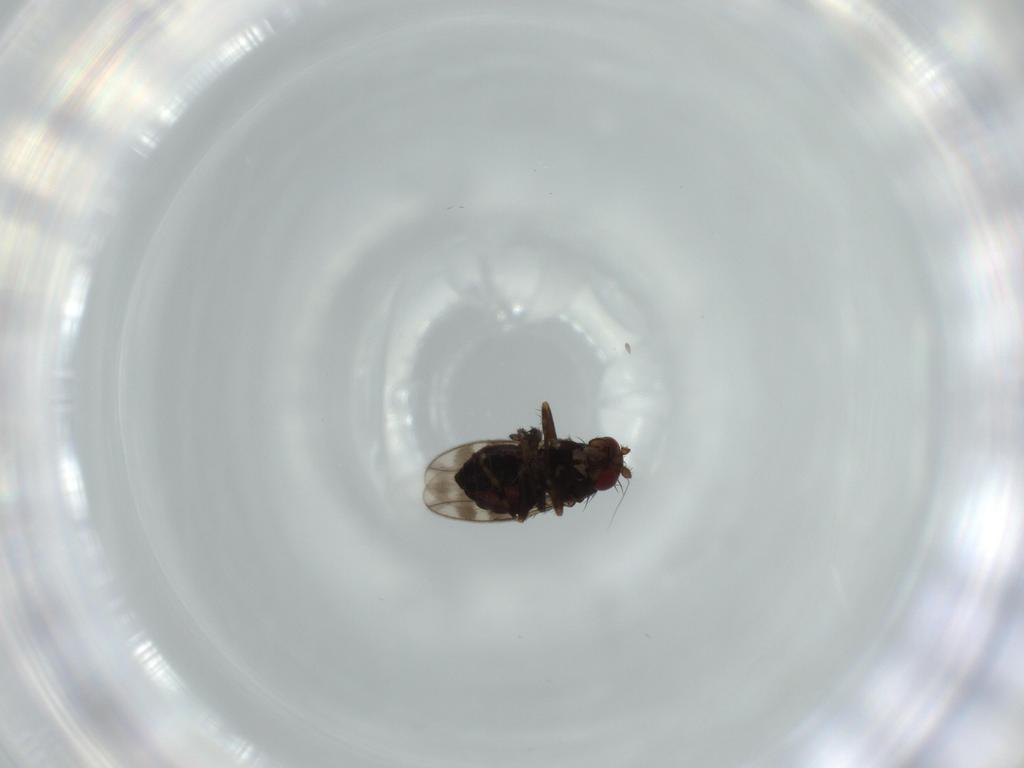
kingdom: Animalia
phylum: Arthropoda
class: Insecta
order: Diptera
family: Sphaeroceridae
